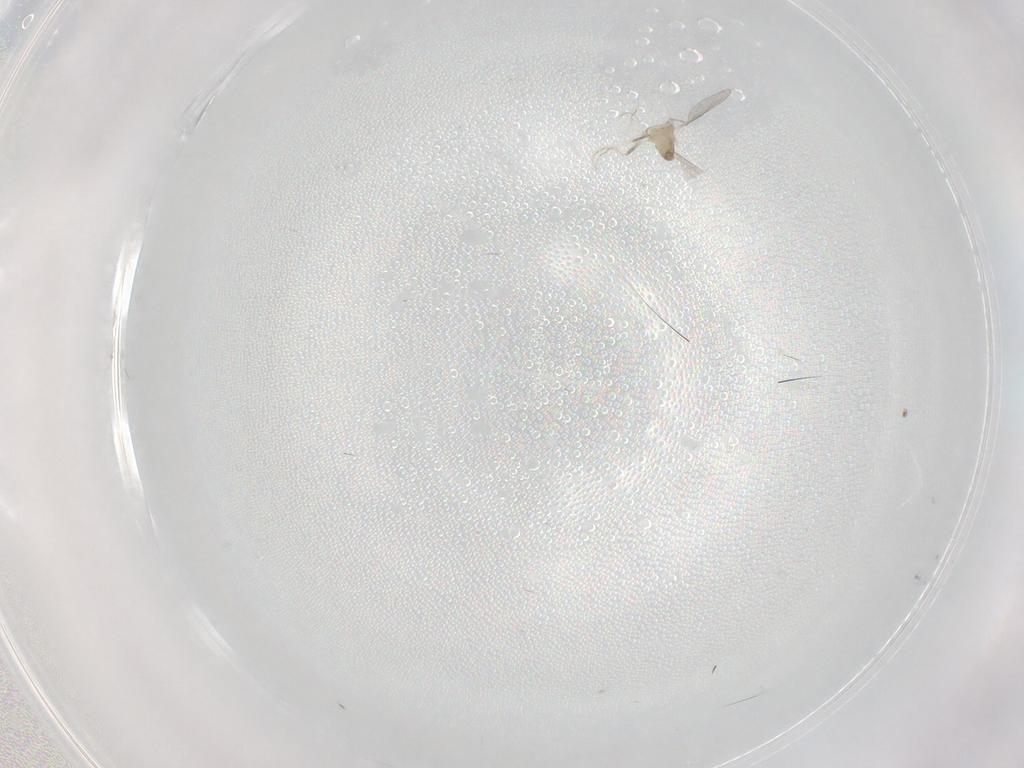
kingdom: Animalia
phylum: Arthropoda
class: Insecta
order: Diptera
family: Cecidomyiidae
